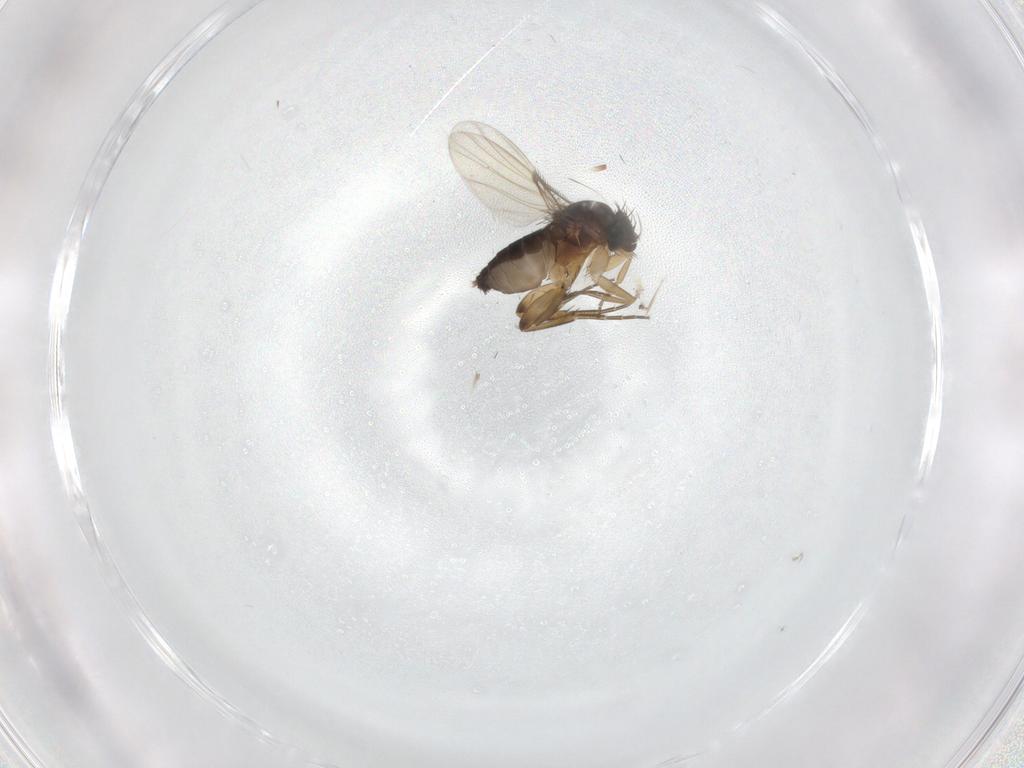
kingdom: Animalia
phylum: Arthropoda
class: Insecta
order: Diptera
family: Phoridae
